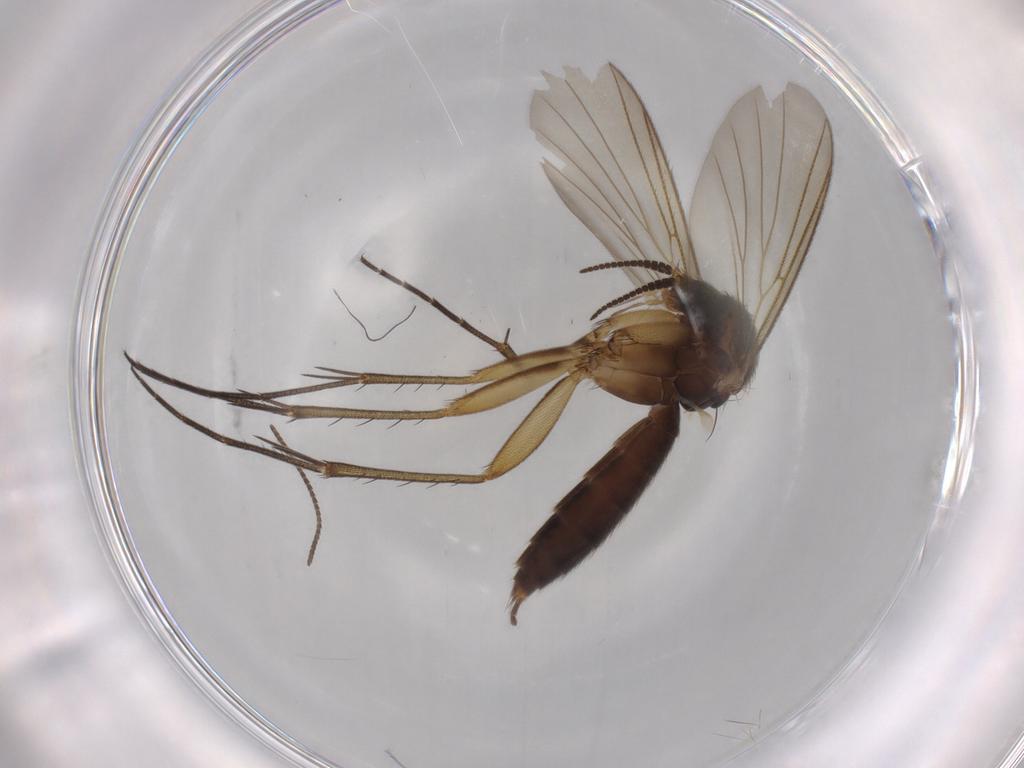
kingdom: Animalia
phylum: Arthropoda
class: Insecta
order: Diptera
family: Mycetophilidae
